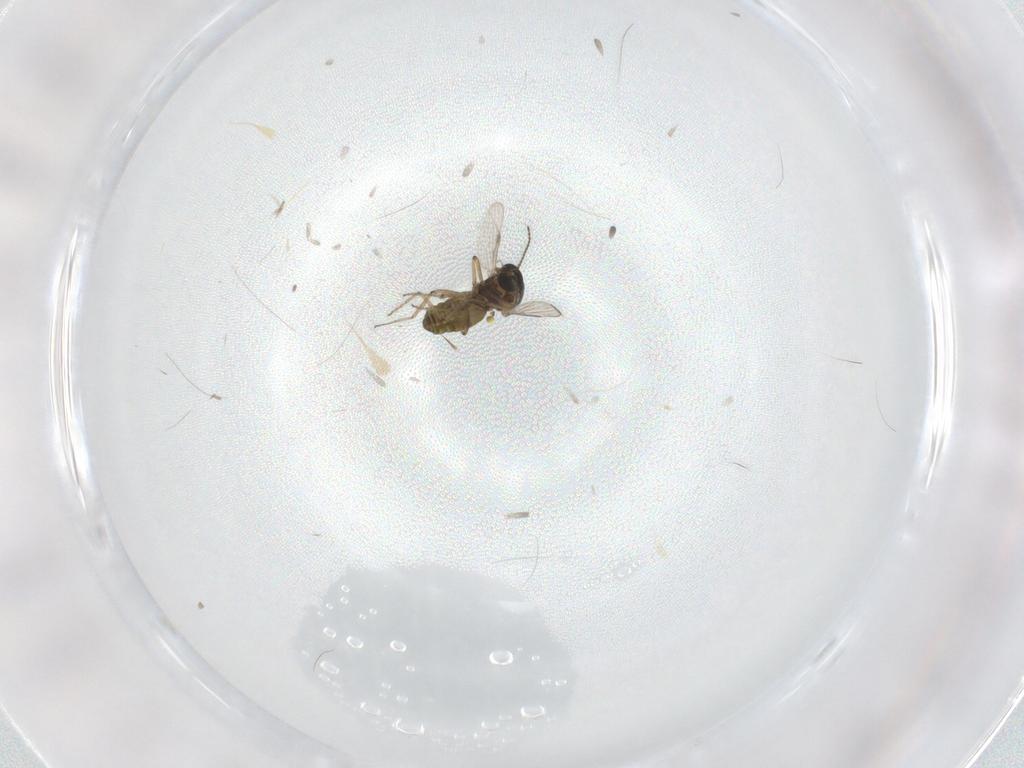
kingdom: Animalia
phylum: Arthropoda
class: Insecta
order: Diptera
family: Ceratopogonidae
